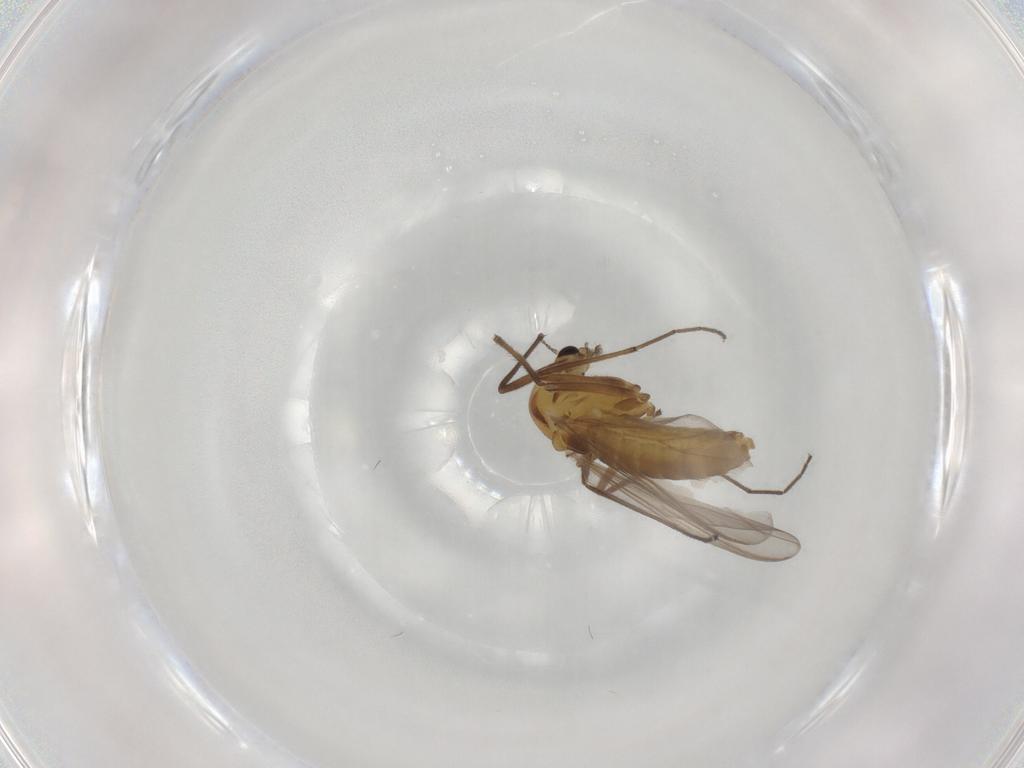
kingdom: Animalia
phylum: Arthropoda
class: Insecta
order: Diptera
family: Chironomidae
